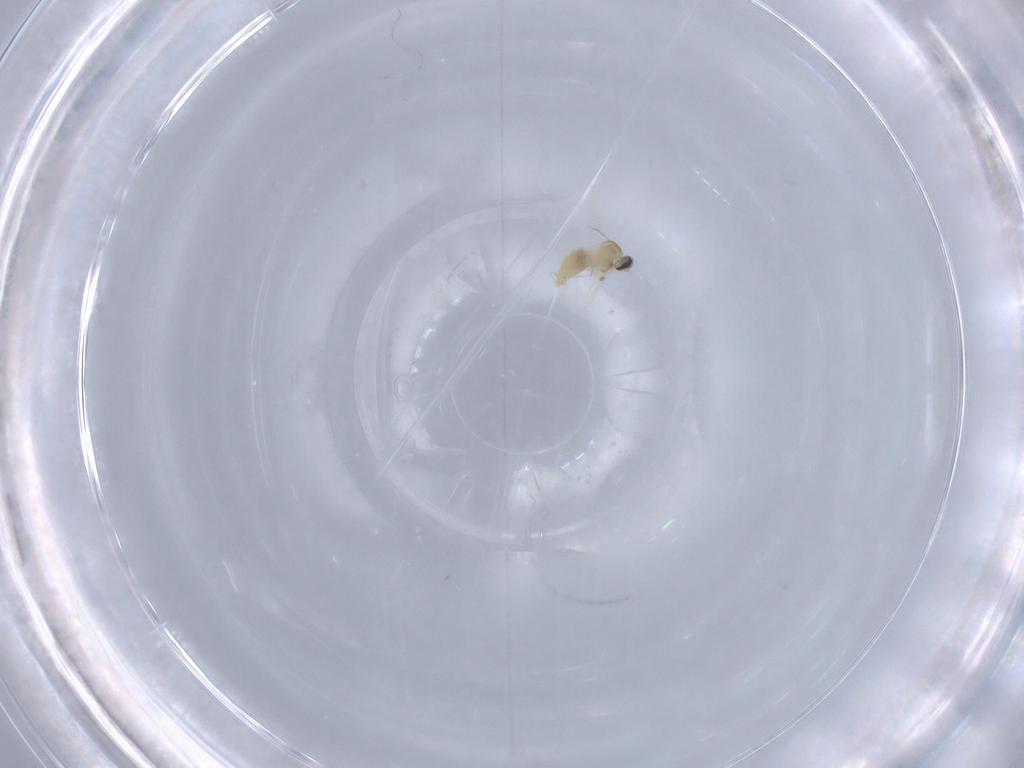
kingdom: Animalia
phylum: Arthropoda
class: Insecta
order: Diptera
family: Cecidomyiidae
